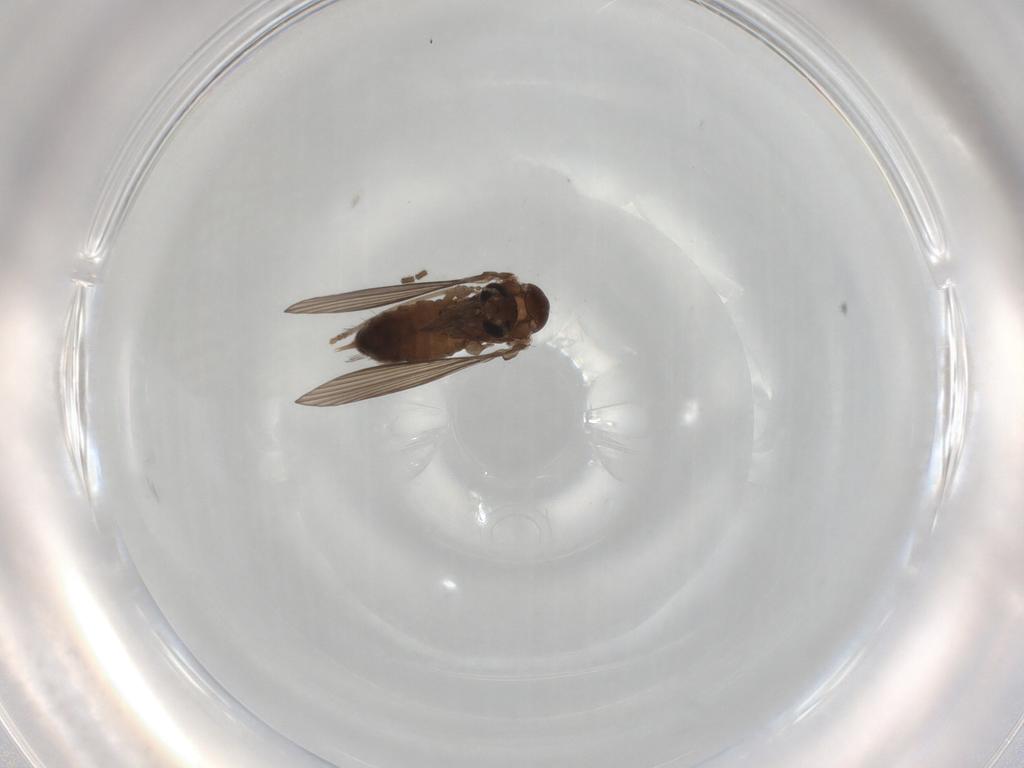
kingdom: Animalia
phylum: Arthropoda
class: Insecta
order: Diptera
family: Sciaridae
